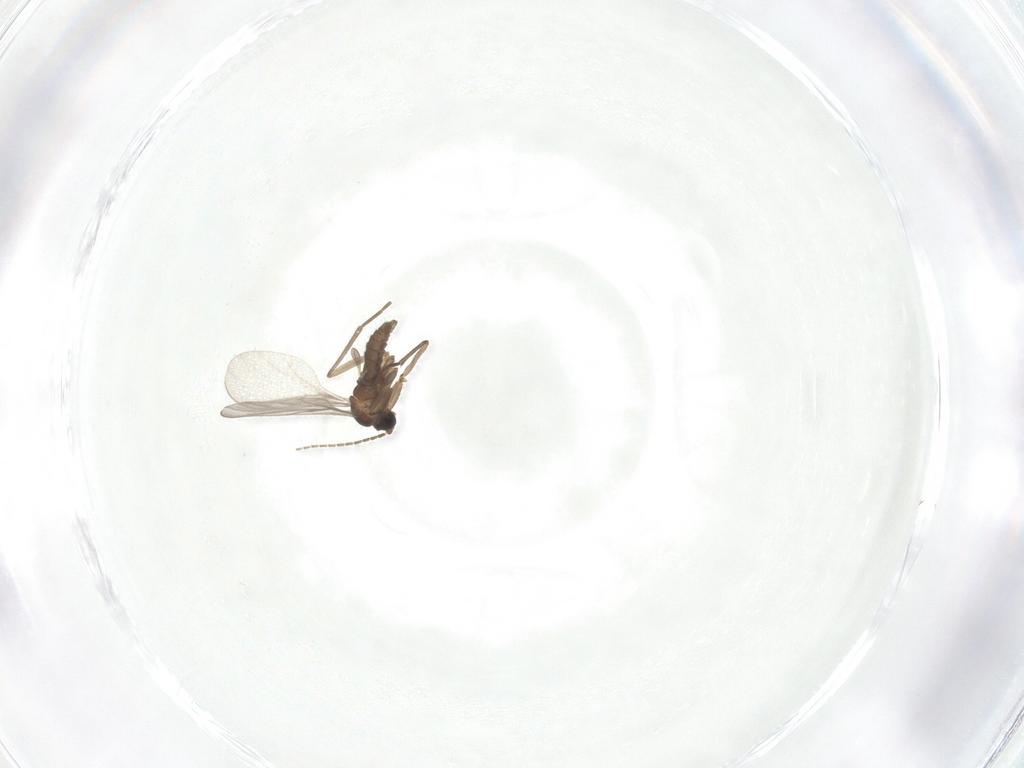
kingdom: Animalia
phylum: Arthropoda
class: Insecta
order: Diptera
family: Sciaridae
